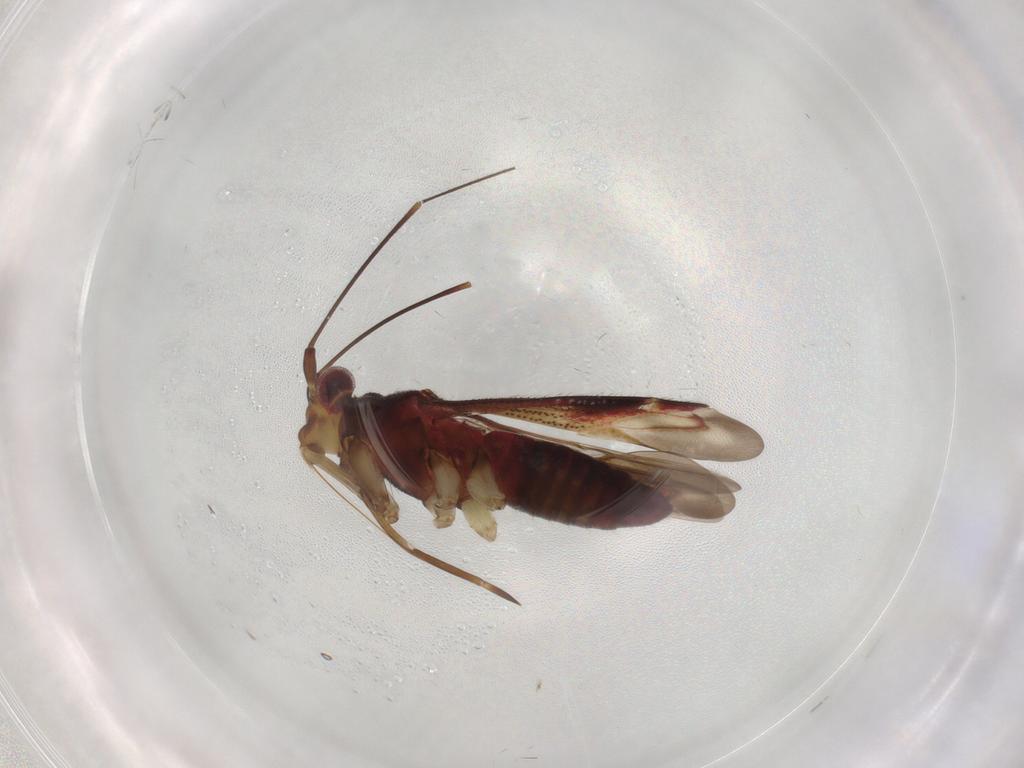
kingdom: Animalia
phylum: Arthropoda
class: Insecta
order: Hemiptera
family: Miridae
